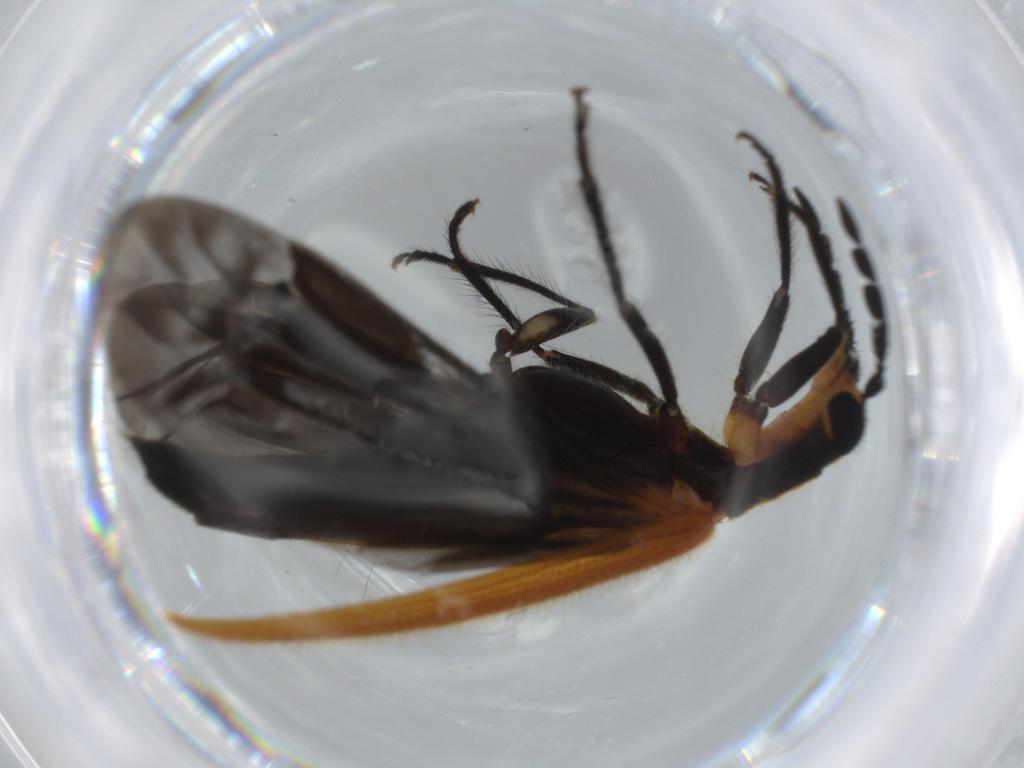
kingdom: Animalia
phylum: Arthropoda
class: Insecta
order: Coleoptera
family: Cleridae
